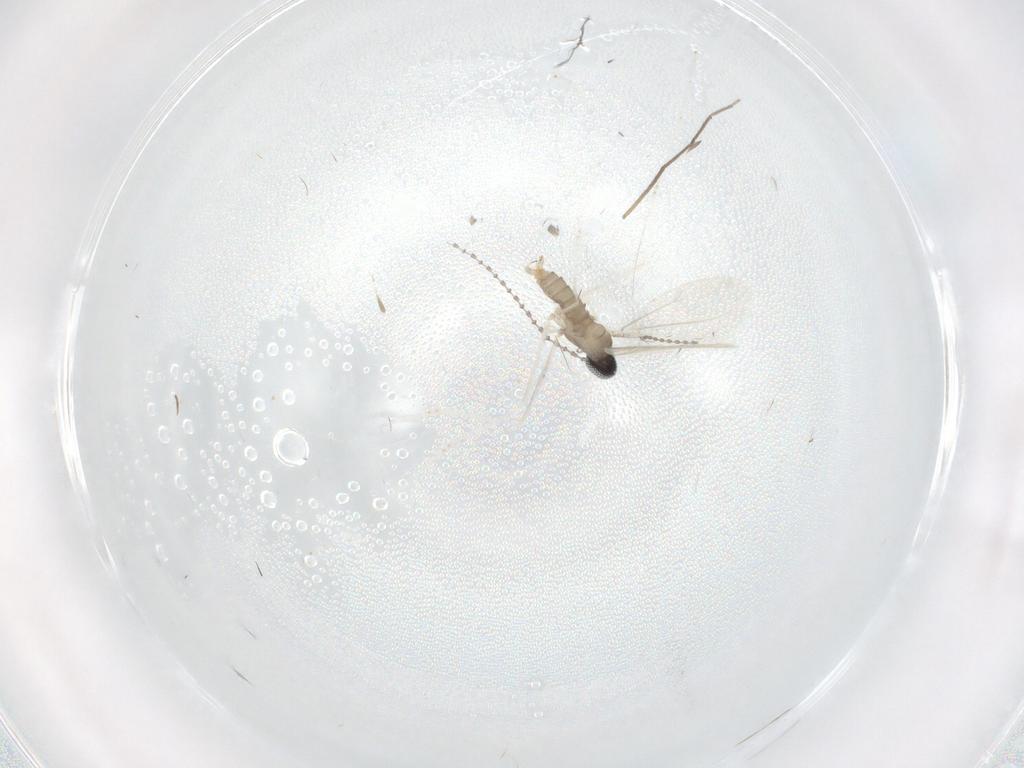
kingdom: Animalia
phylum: Arthropoda
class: Insecta
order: Diptera
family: Cecidomyiidae
